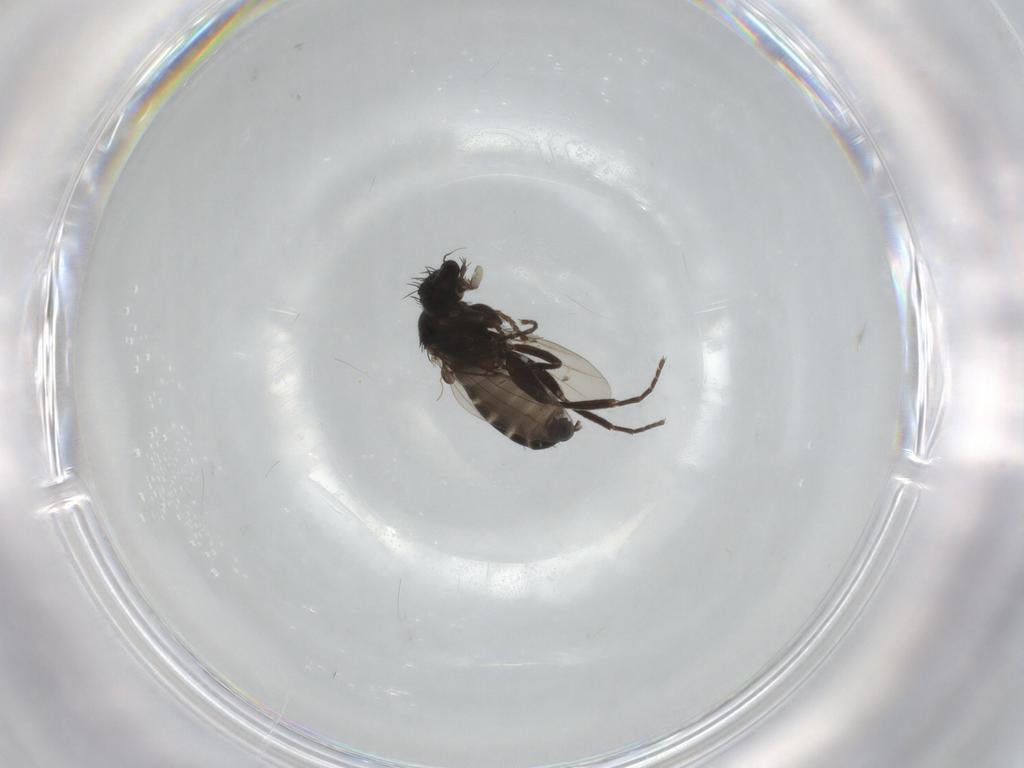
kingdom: Animalia
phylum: Arthropoda
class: Insecta
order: Diptera
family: Phoridae
